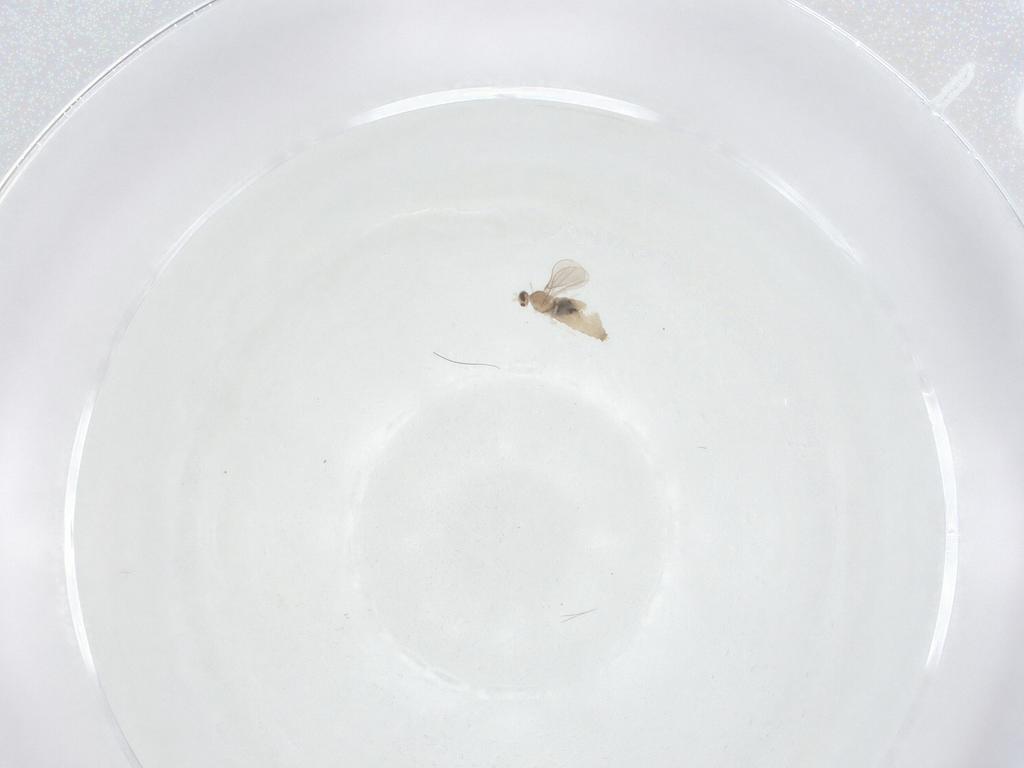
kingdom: Animalia
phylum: Arthropoda
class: Insecta
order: Diptera
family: Cecidomyiidae
